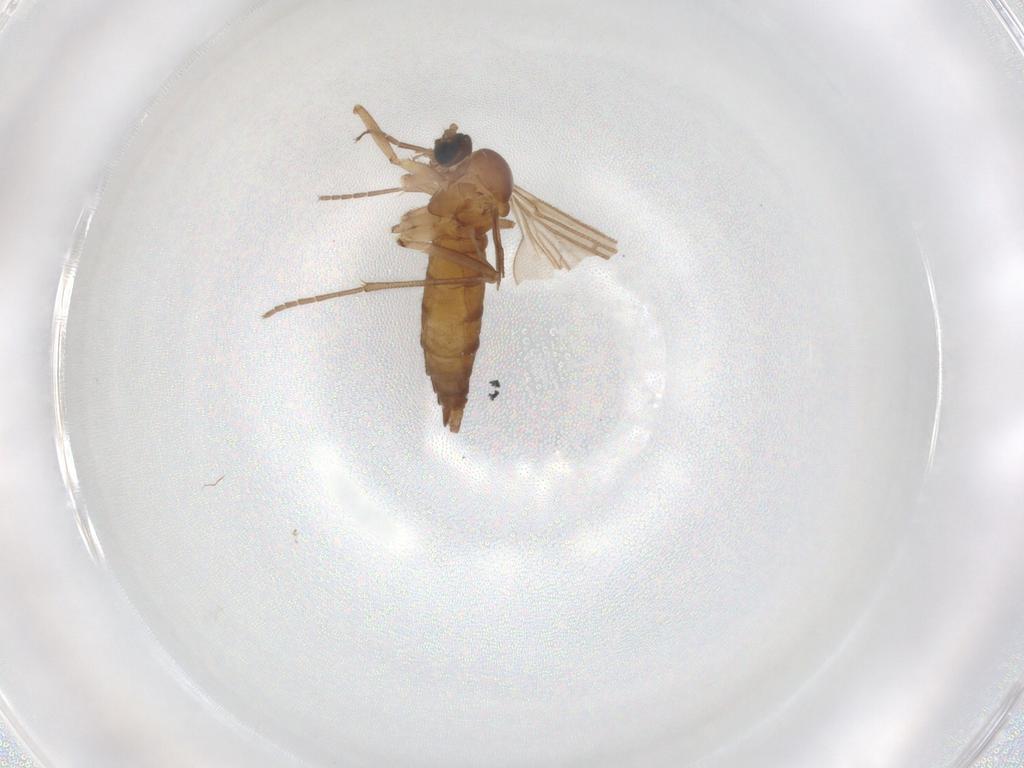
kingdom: Animalia
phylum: Arthropoda
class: Insecta
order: Diptera
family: Sciaridae
